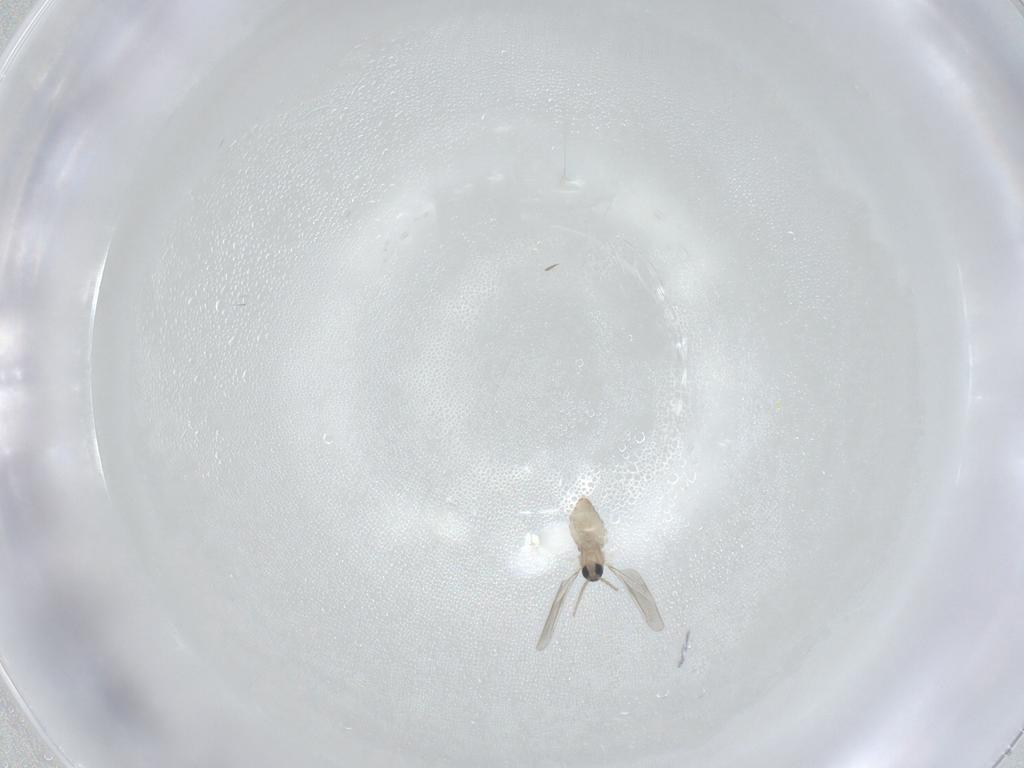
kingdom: Animalia
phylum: Arthropoda
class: Insecta
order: Diptera
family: Cecidomyiidae
